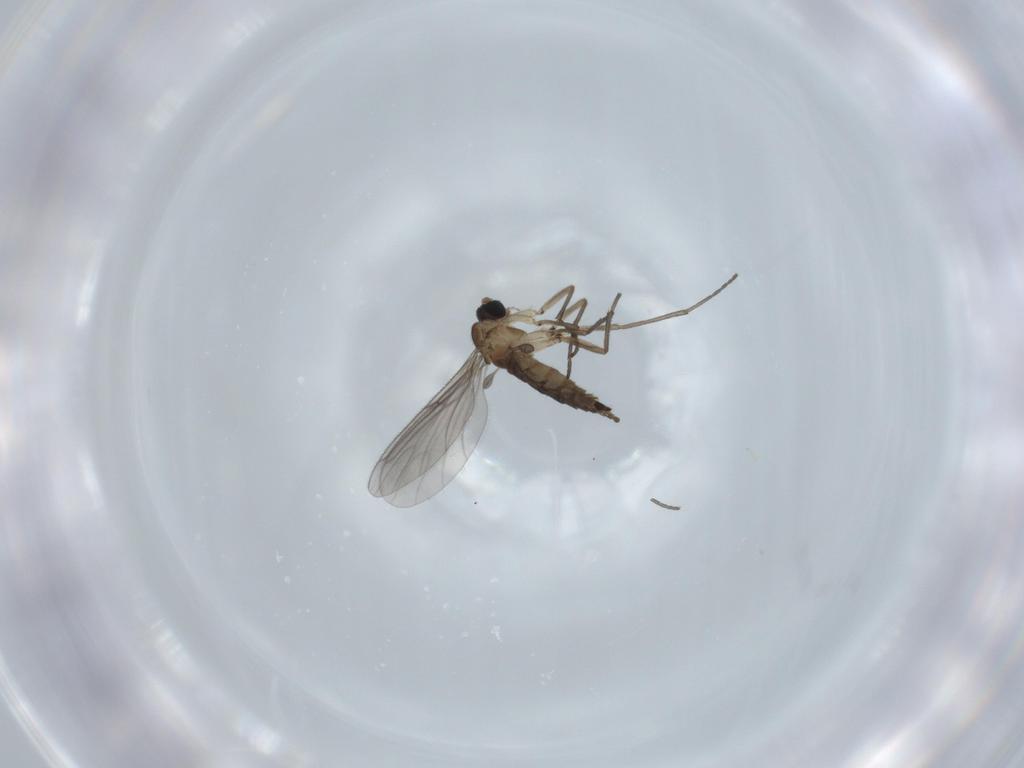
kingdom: Animalia
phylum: Arthropoda
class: Insecta
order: Diptera
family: Sciaridae
